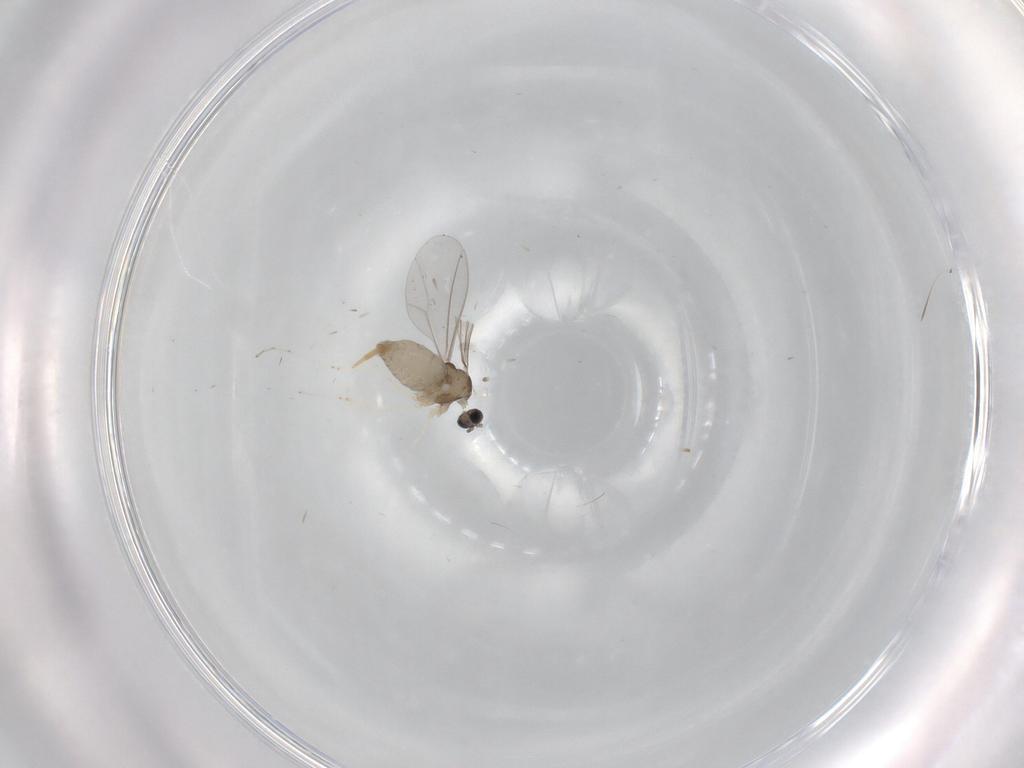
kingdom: Animalia
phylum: Arthropoda
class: Insecta
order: Diptera
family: Cecidomyiidae
